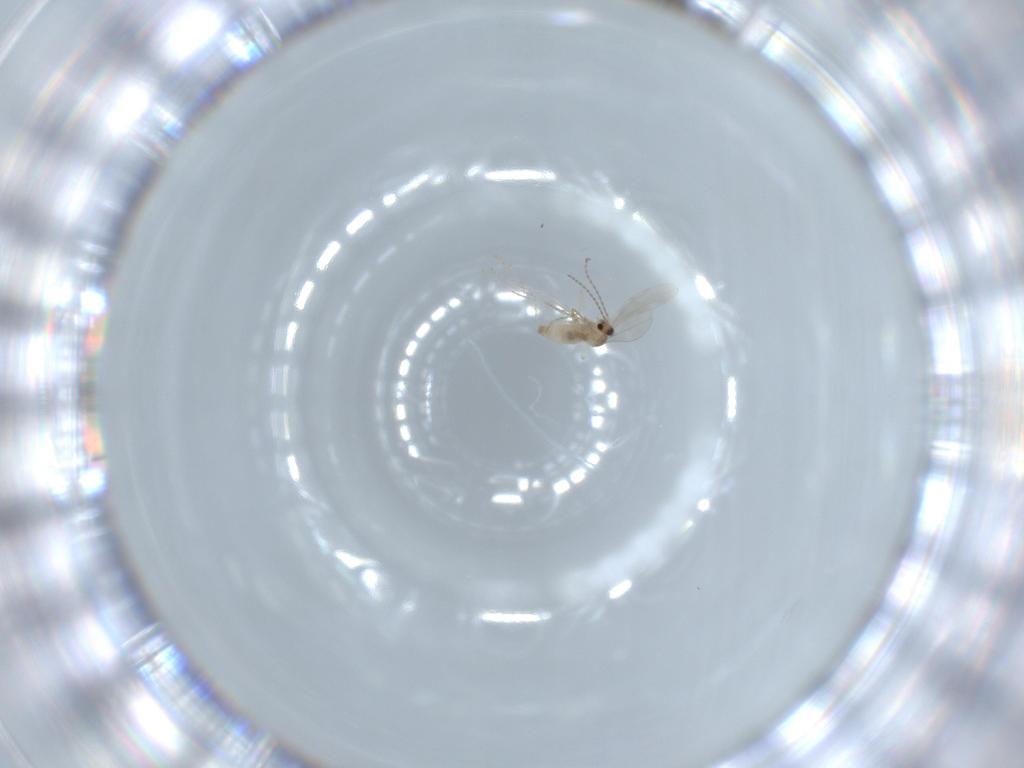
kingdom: Animalia
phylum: Arthropoda
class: Insecta
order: Diptera
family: Cecidomyiidae
